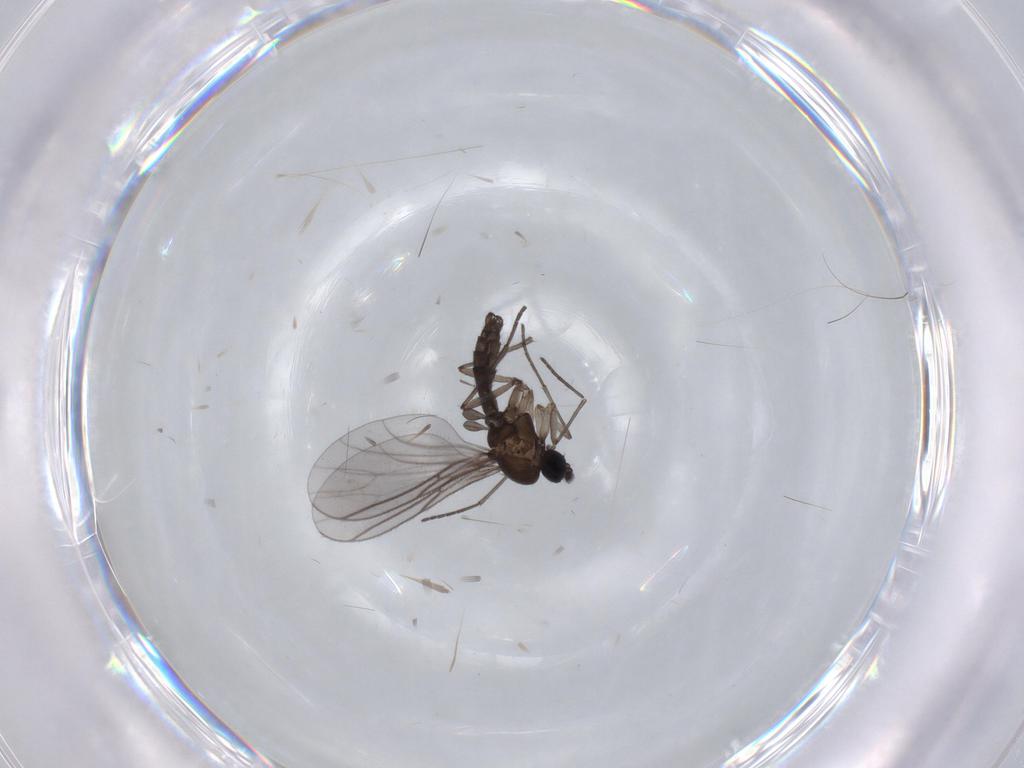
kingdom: Animalia
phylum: Arthropoda
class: Insecta
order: Diptera
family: Sciaridae
